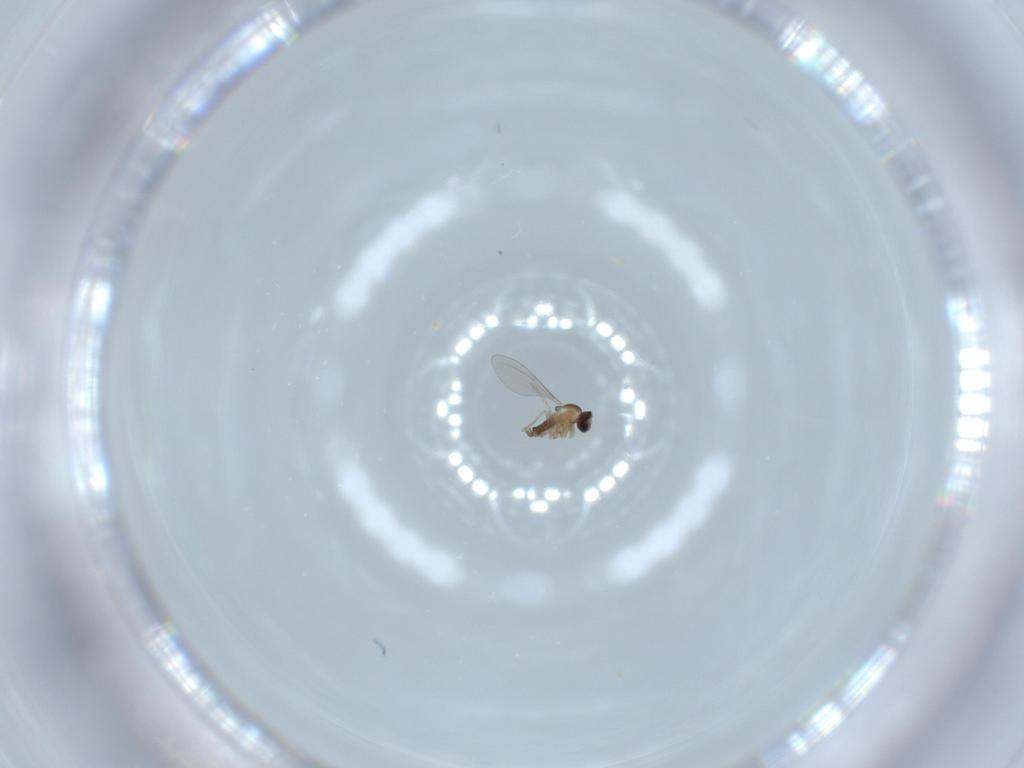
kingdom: Animalia
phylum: Arthropoda
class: Insecta
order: Diptera
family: Cecidomyiidae
